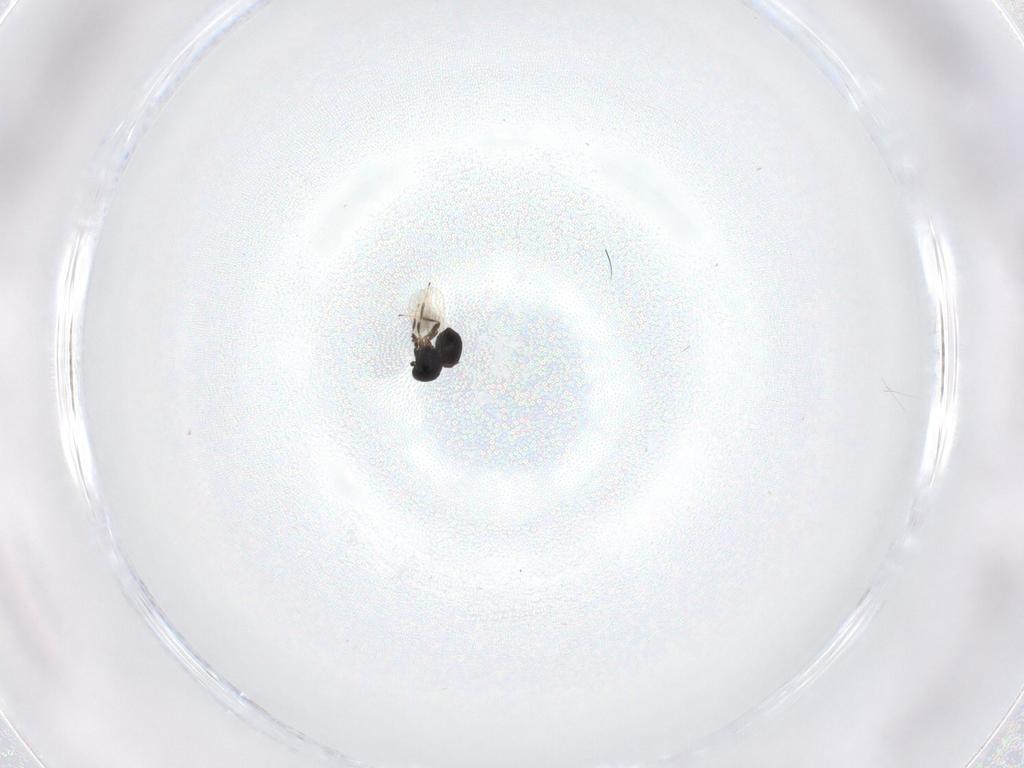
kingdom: Animalia
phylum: Arthropoda
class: Insecta
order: Hymenoptera
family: Platygastridae
